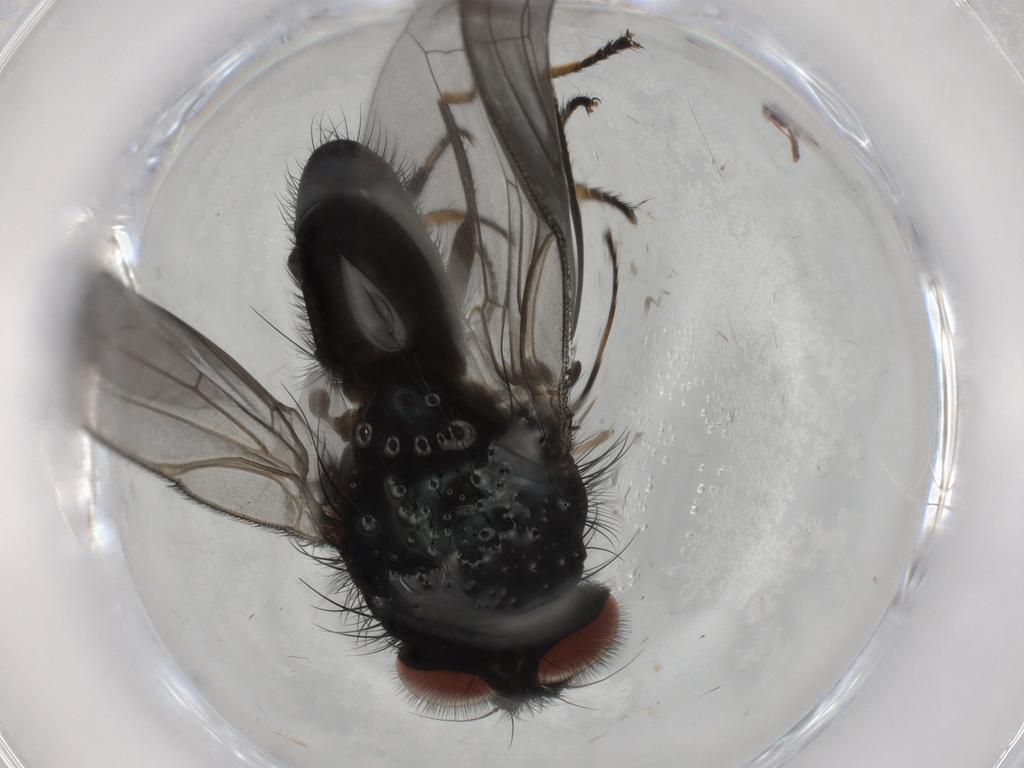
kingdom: Animalia
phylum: Arthropoda
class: Insecta
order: Diptera
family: Lonchaeidae
